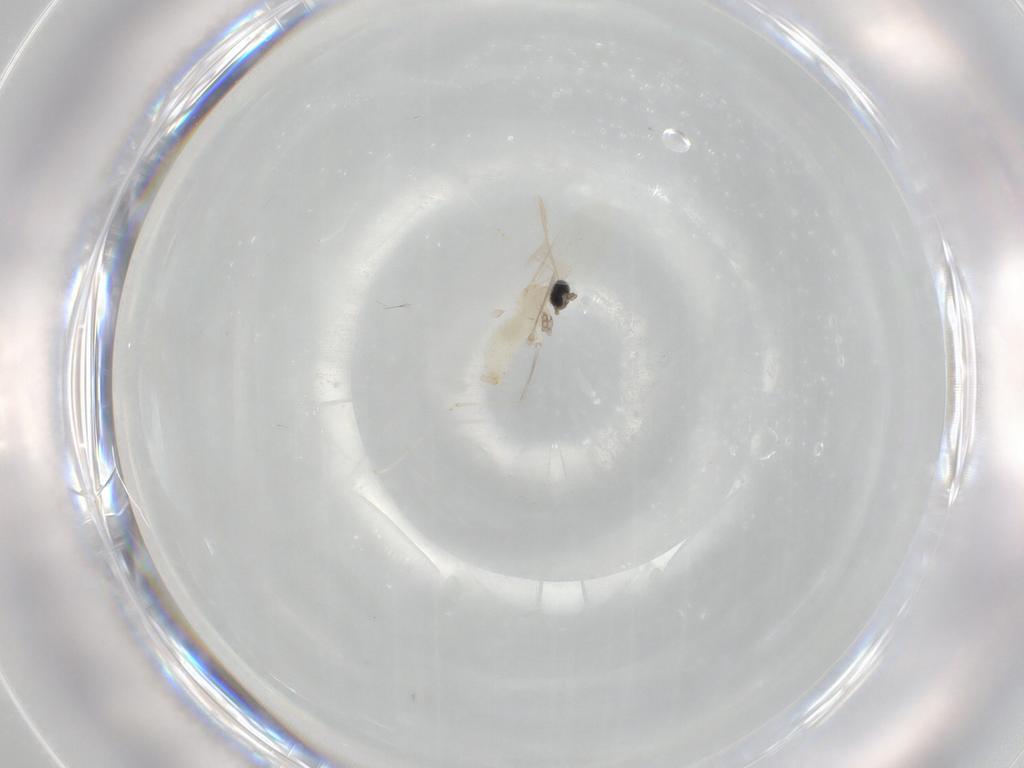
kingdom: Animalia
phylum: Arthropoda
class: Insecta
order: Diptera
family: Cecidomyiidae
